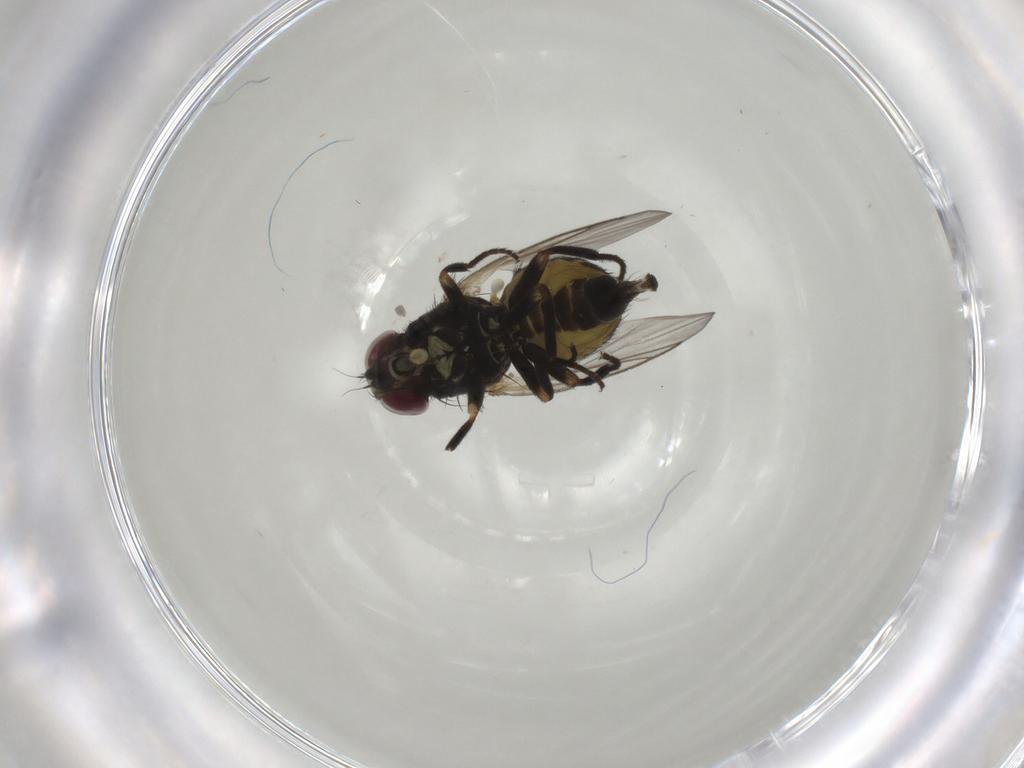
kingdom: Animalia
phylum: Arthropoda
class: Insecta
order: Diptera
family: Agromyzidae
